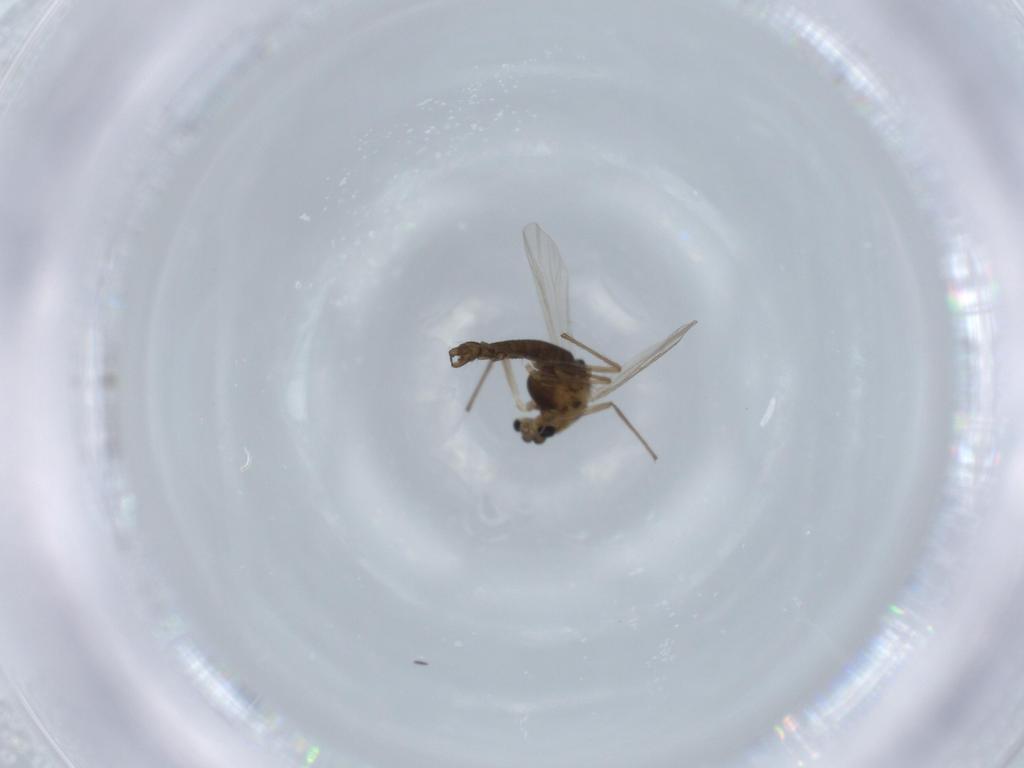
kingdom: Animalia
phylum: Arthropoda
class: Insecta
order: Diptera
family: Chironomidae
